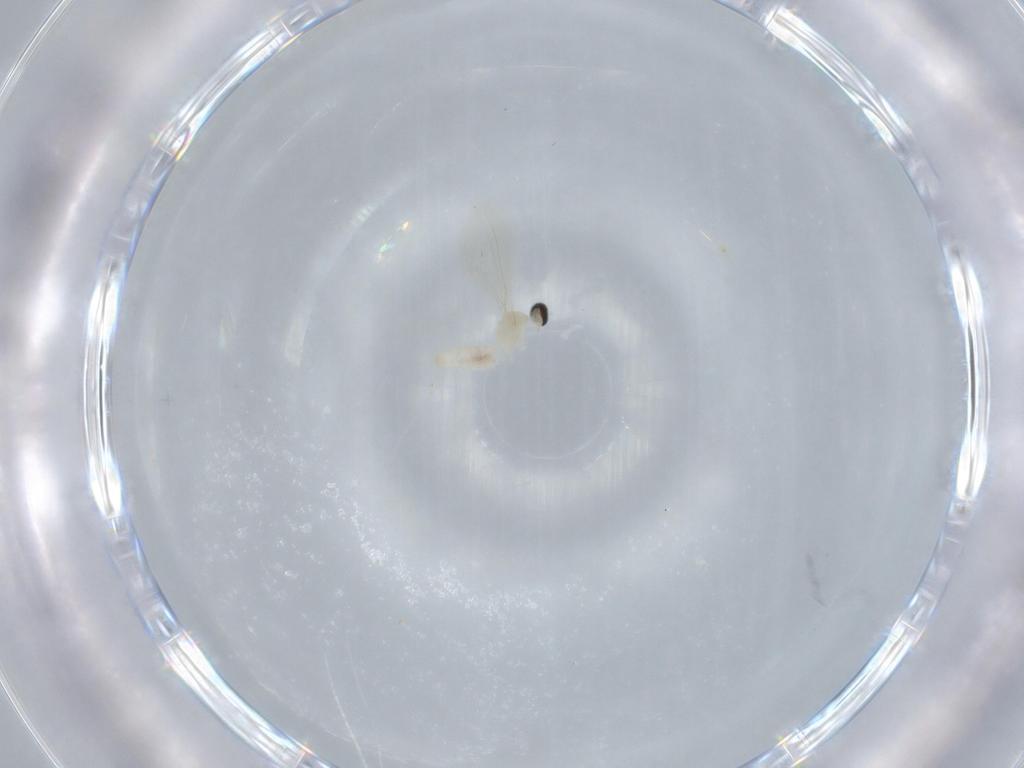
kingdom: Animalia
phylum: Arthropoda
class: Insecta
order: Diptera
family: Cecidomyiidae
